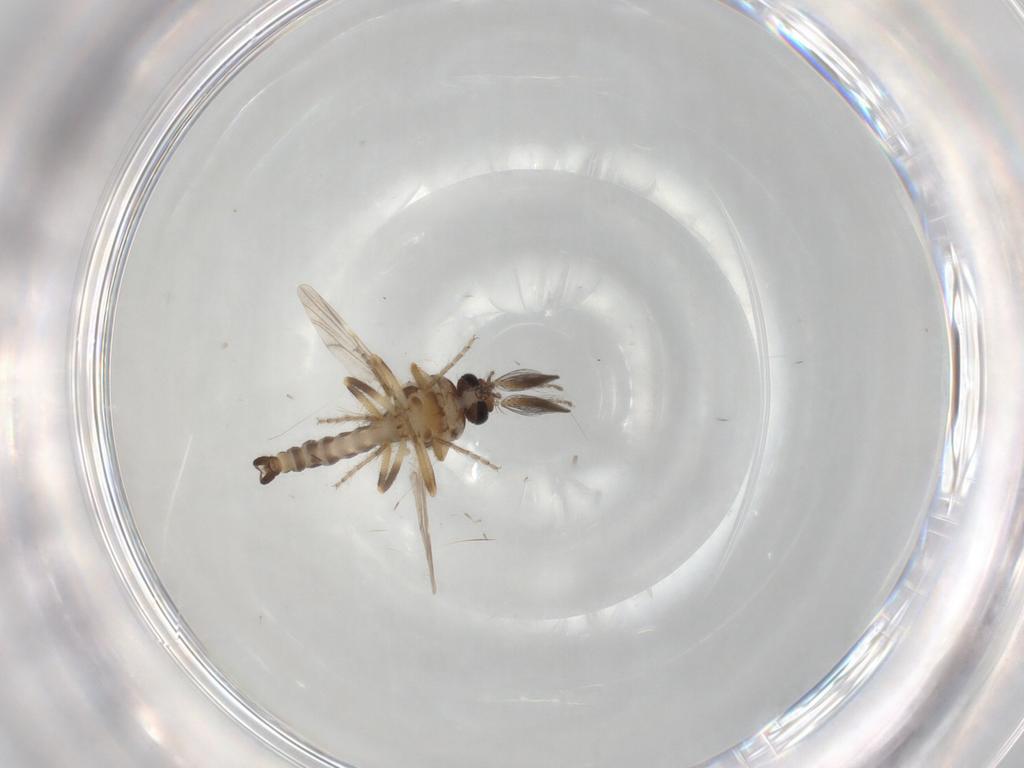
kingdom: Animalia
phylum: Arthropoda
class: Insecta
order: Diptera
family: Ceratopogonidae
